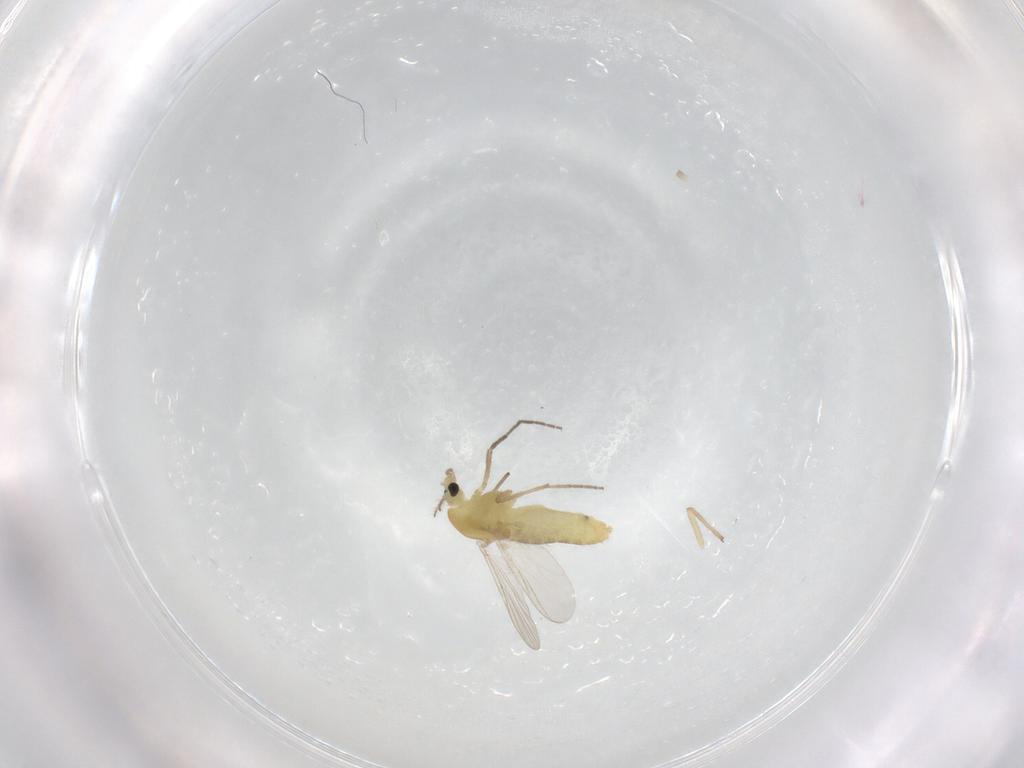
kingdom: Animalia
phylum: Arthropoda
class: Insecta
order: Diptera
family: Chironomidae
